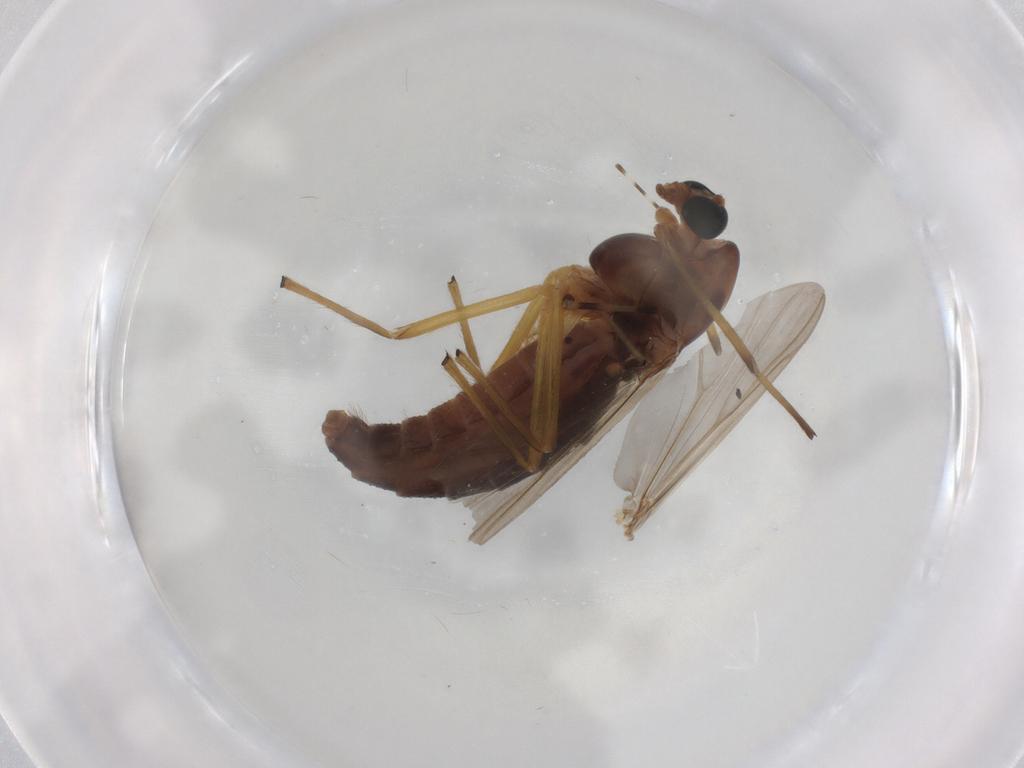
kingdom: Animalia
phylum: Arthropoda
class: Insecta
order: Diptera
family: Chironomidae
